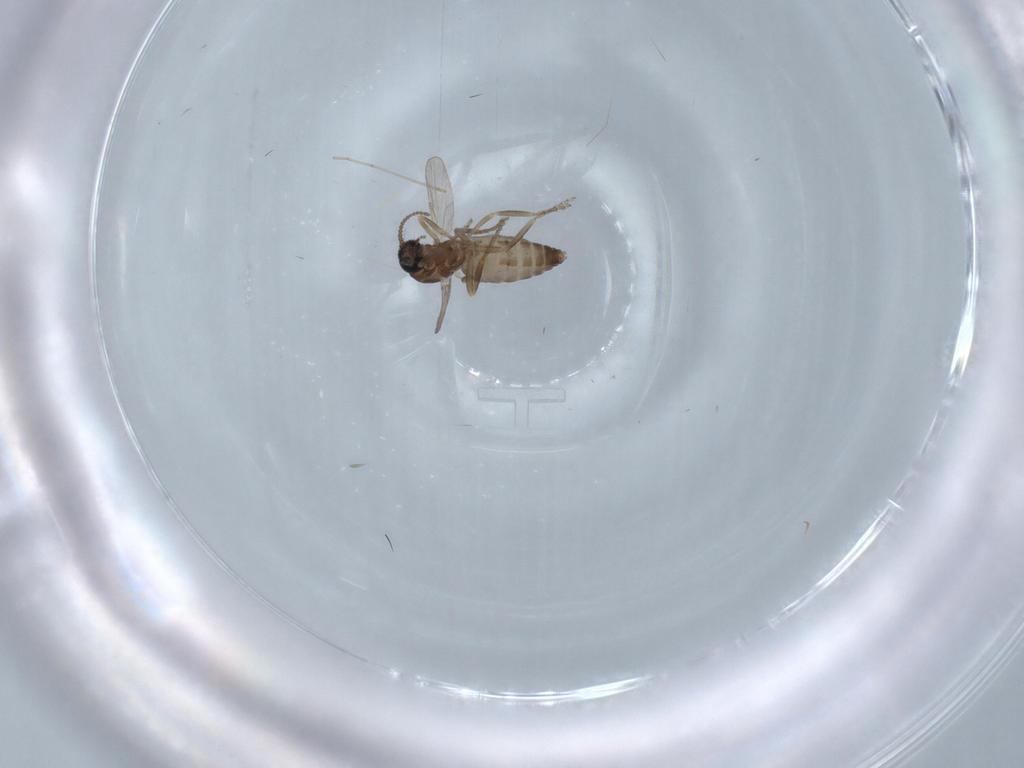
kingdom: Animalia
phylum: Arthropoda
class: Insecta
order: Diptera
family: Ceratopogonidae
